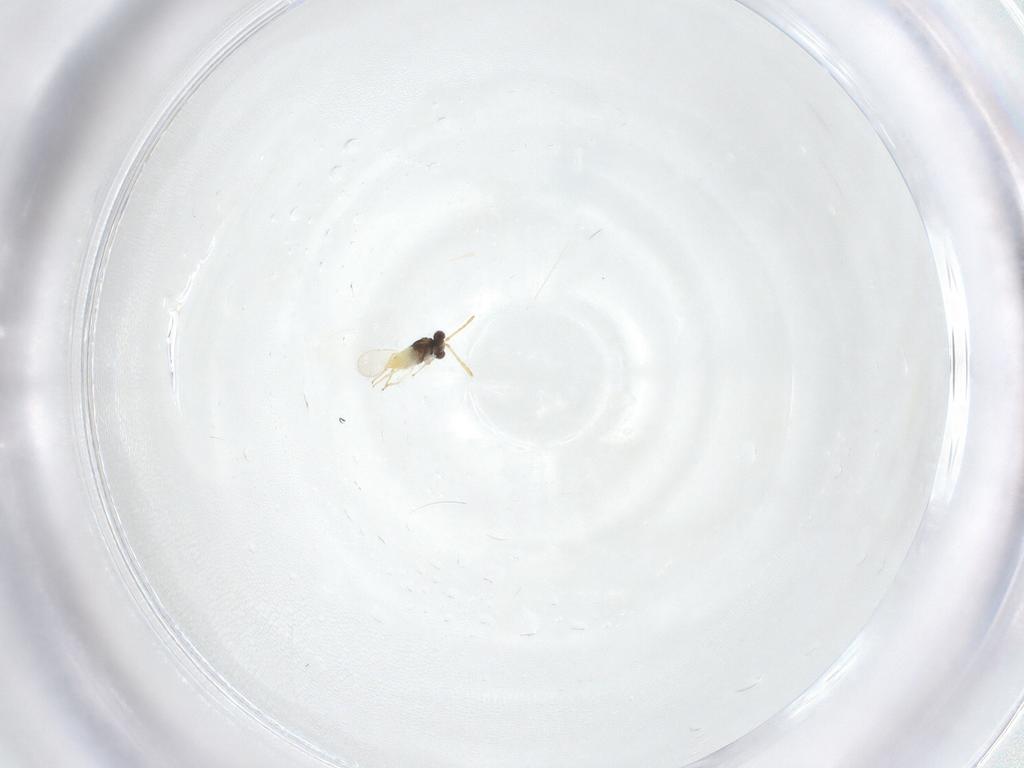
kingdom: Animalia
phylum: Arthropoda
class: Insecta
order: Hymenoptera
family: Aphelinidae
